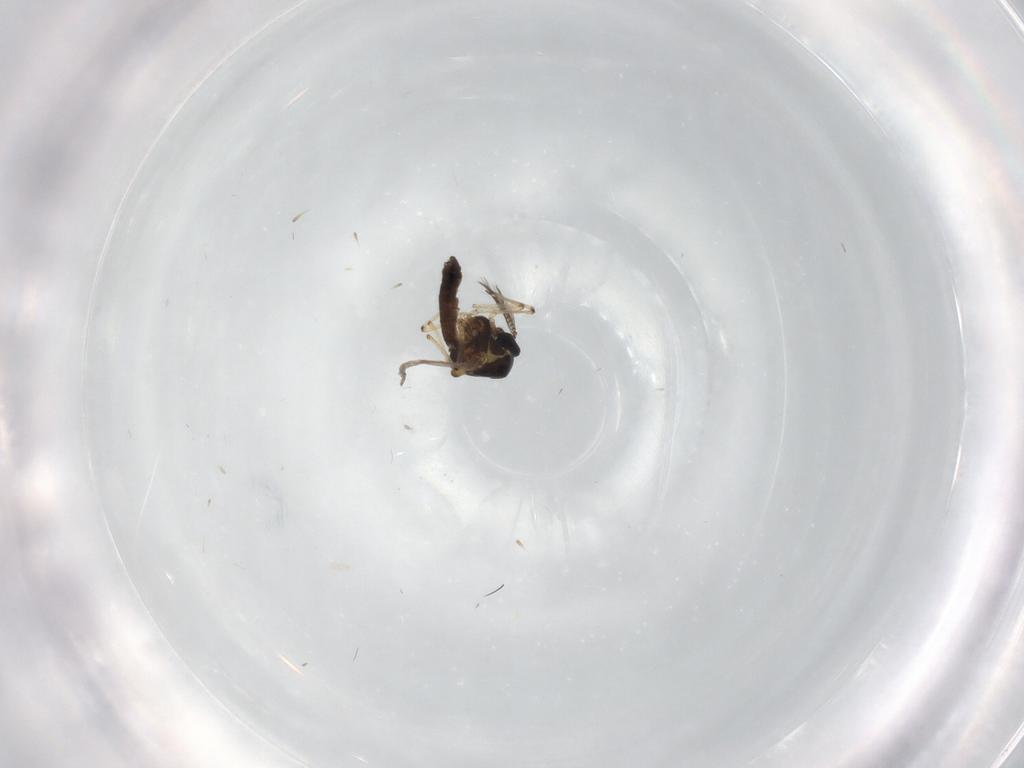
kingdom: Animalia
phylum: Arthropoda
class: Insecta
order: Diptera
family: Ceratopogonidae
